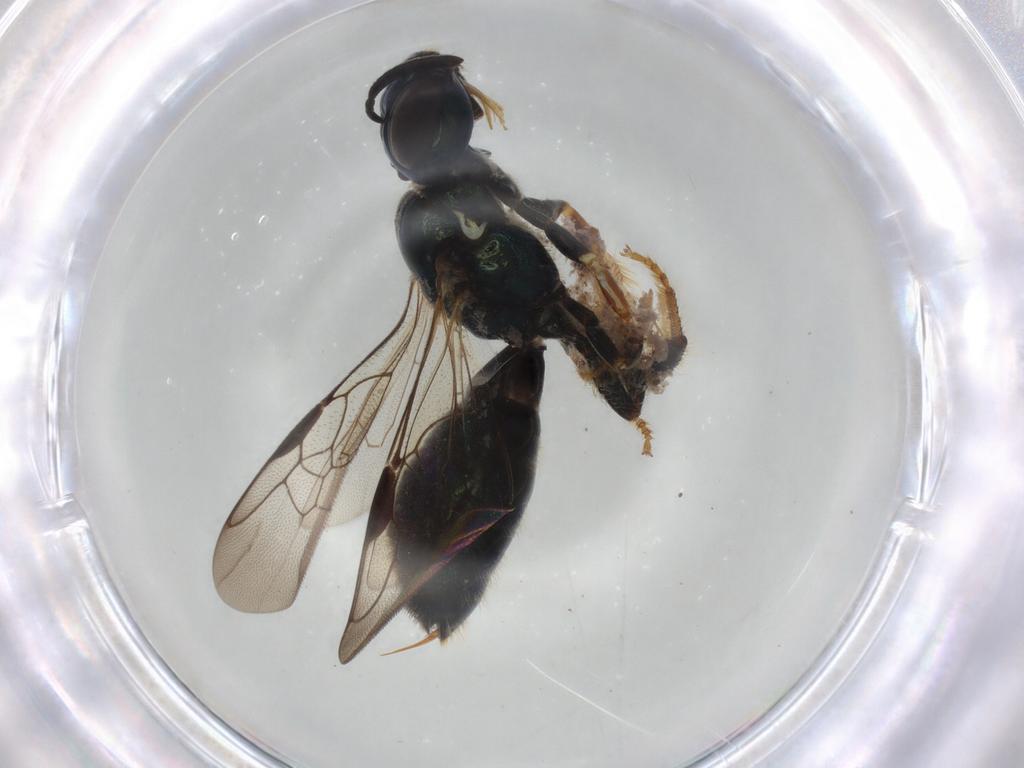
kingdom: Animalia
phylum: Arthropoda
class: Insecta
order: Hymenoptera
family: Apidae
